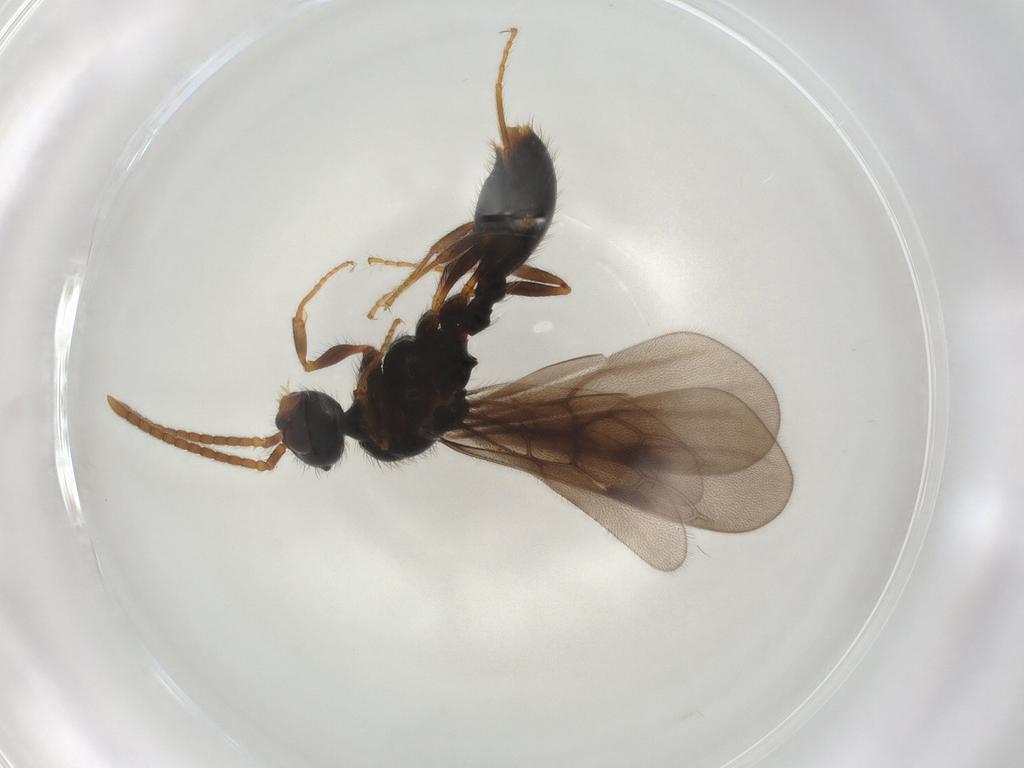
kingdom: Animalia
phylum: Arthropoda
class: Insecta
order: Hymenoptera
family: Formicidae
